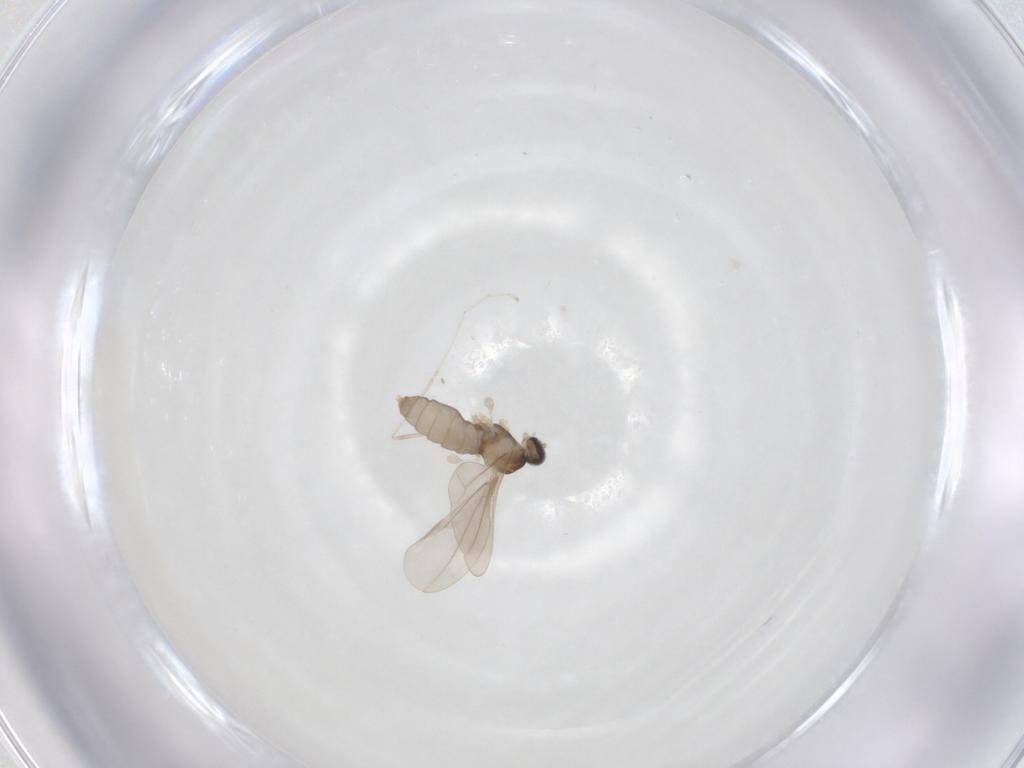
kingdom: Animalia
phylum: Arthropoda
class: Insecta
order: Diptera
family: Cecidomyiidae
